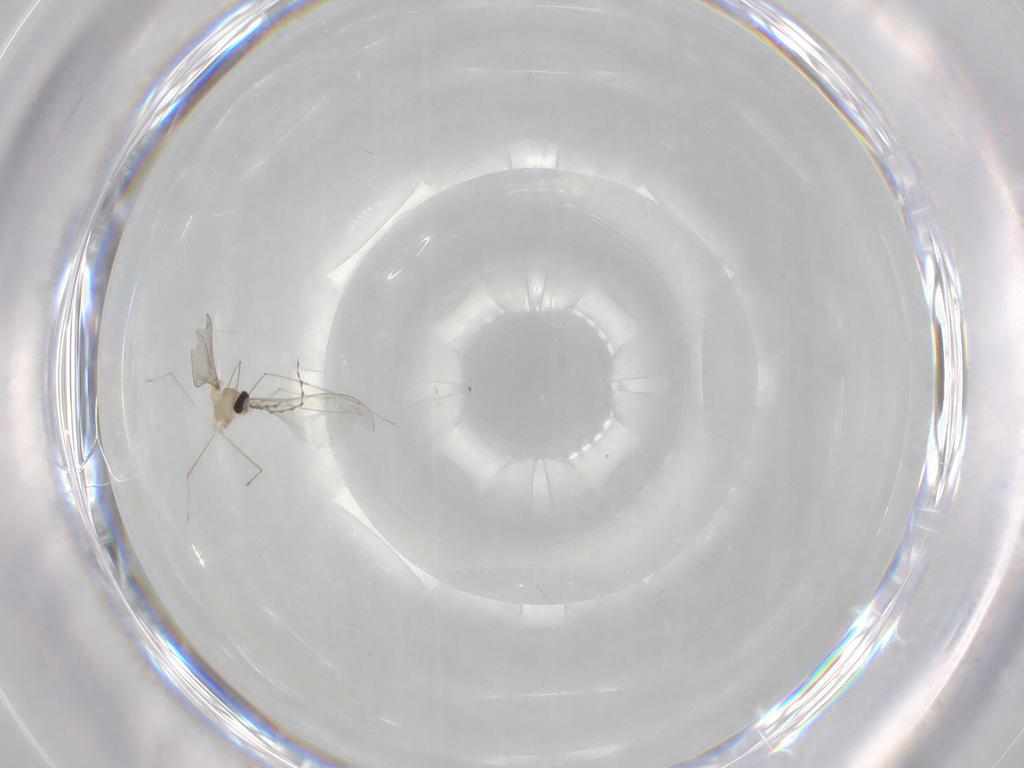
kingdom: Animalia
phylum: Arthropoda
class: Insecta
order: Diptera
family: Cecidomyiidae
